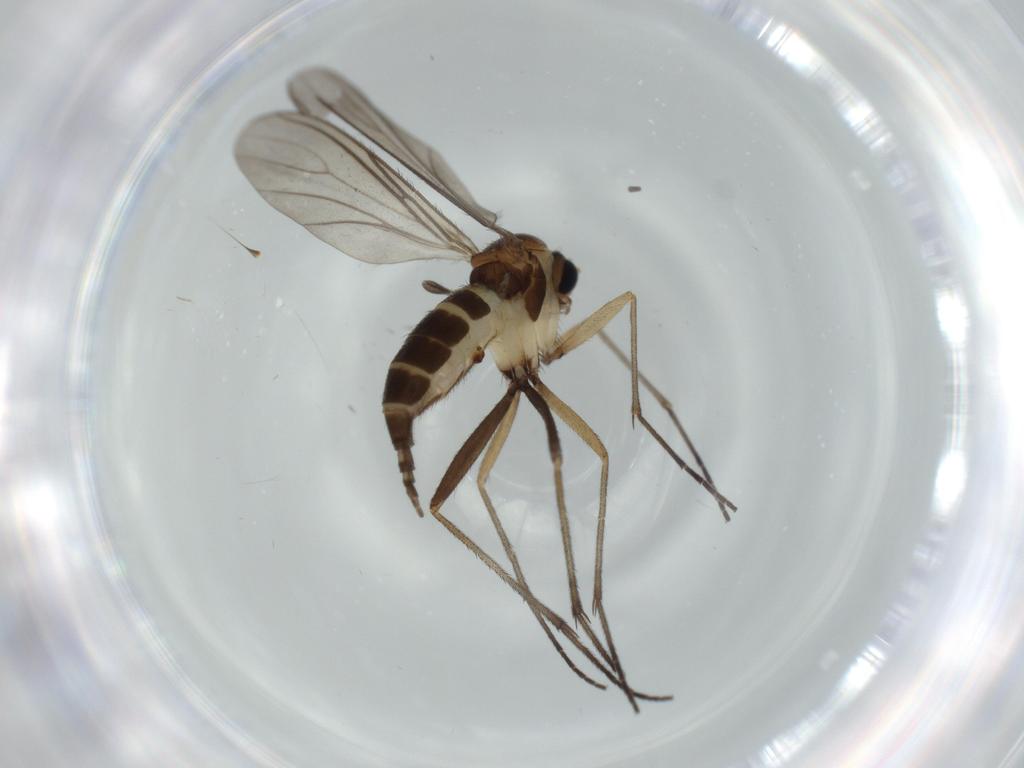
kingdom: Animalia
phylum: Arthropoda
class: Insecta
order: Diptera
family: Sciaridae
